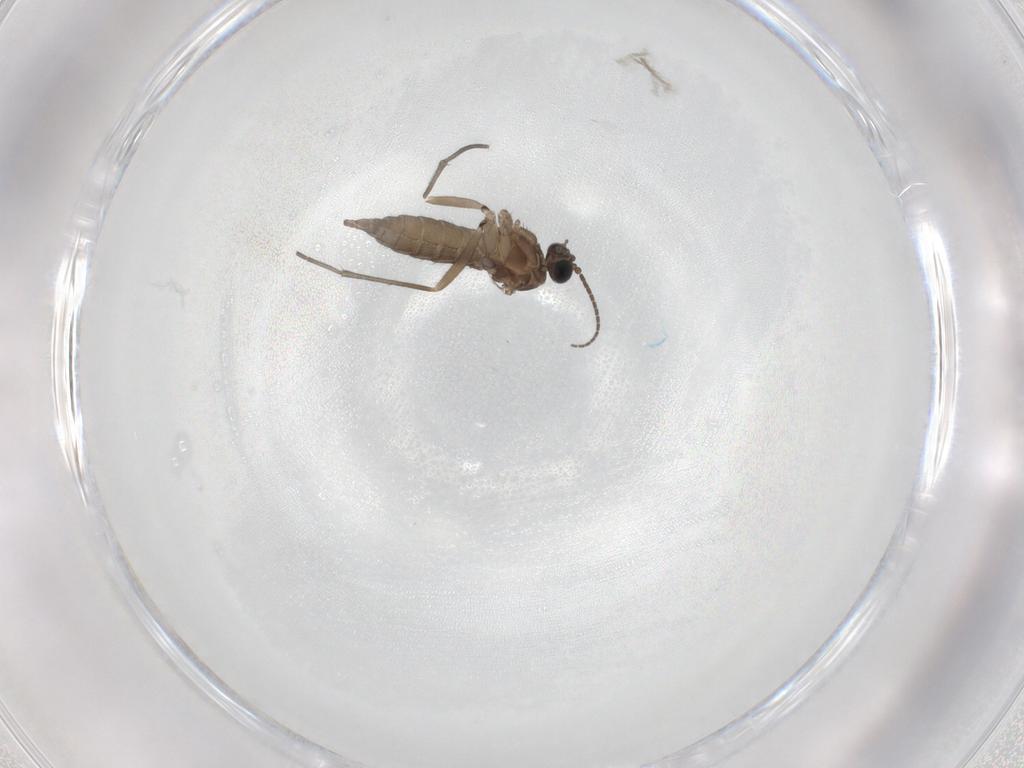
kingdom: Animalia
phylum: Arthropoda
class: Insecta
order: Diptera
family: Sciaridae
